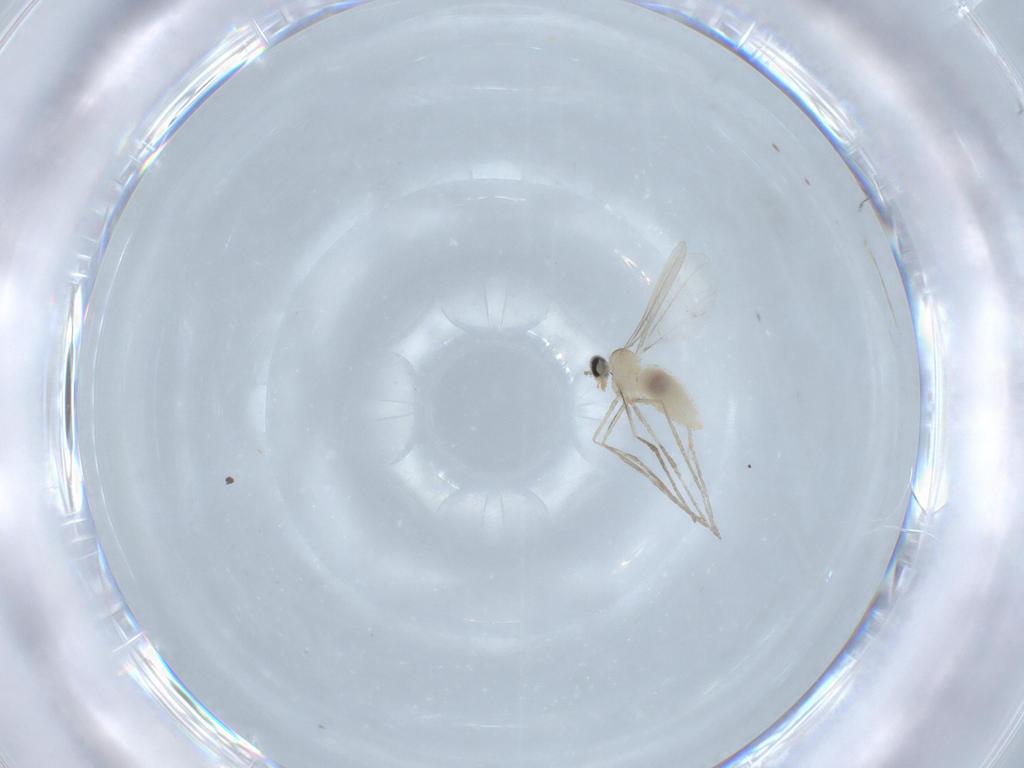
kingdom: Animalia
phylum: Arthropoda
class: Insecta
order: Diptera
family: Cecidomyiidae
